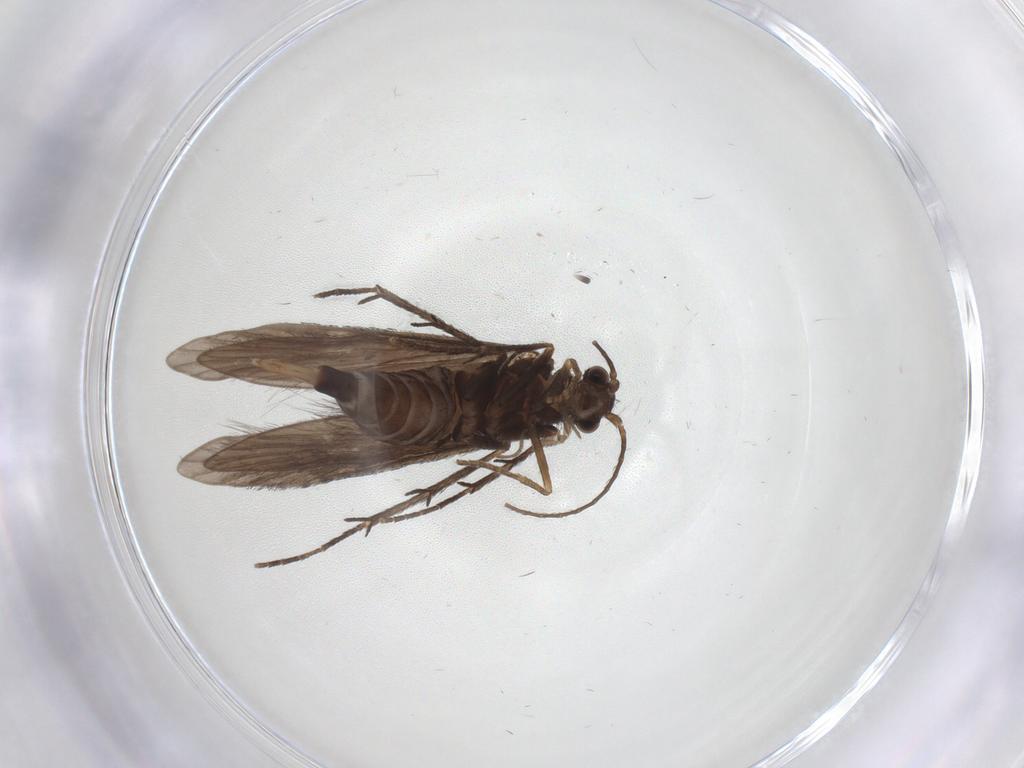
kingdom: Animalia
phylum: Arthropoda
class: Insecta
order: Trichoptera
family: Xiphocentronidae
